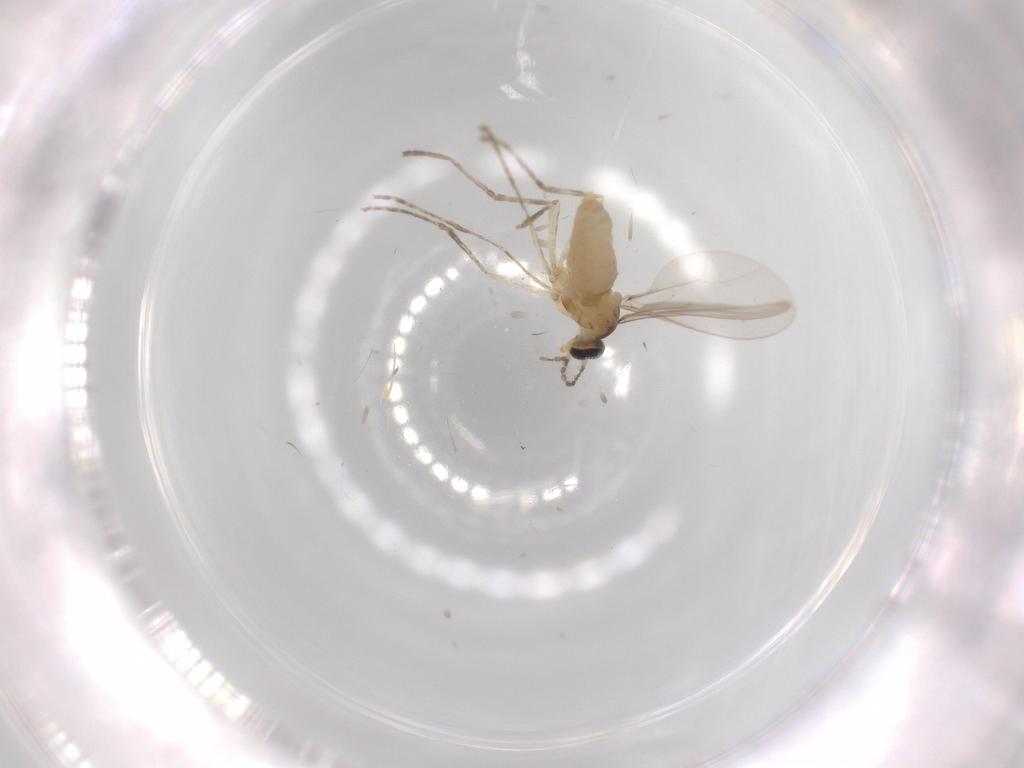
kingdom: Animalia
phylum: Arthropoda
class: Insecta
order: Diptera
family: Cecidomyiidae
